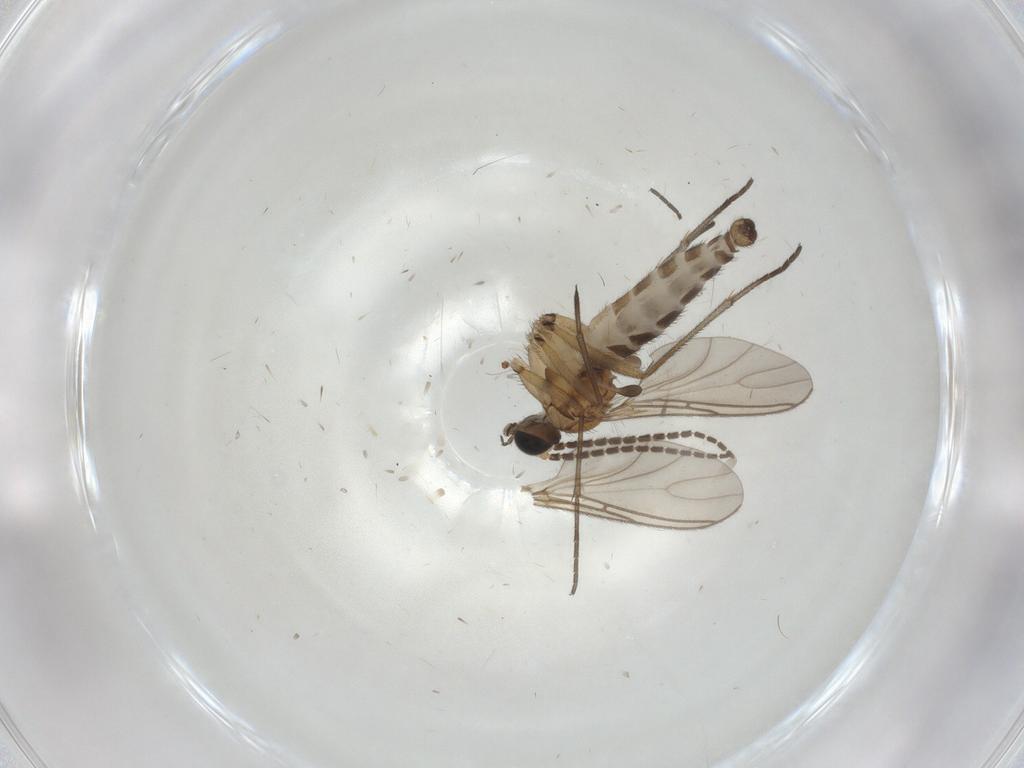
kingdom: Animalia
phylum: Arthropoda
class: Insecta
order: Diptera
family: Sciaridae
